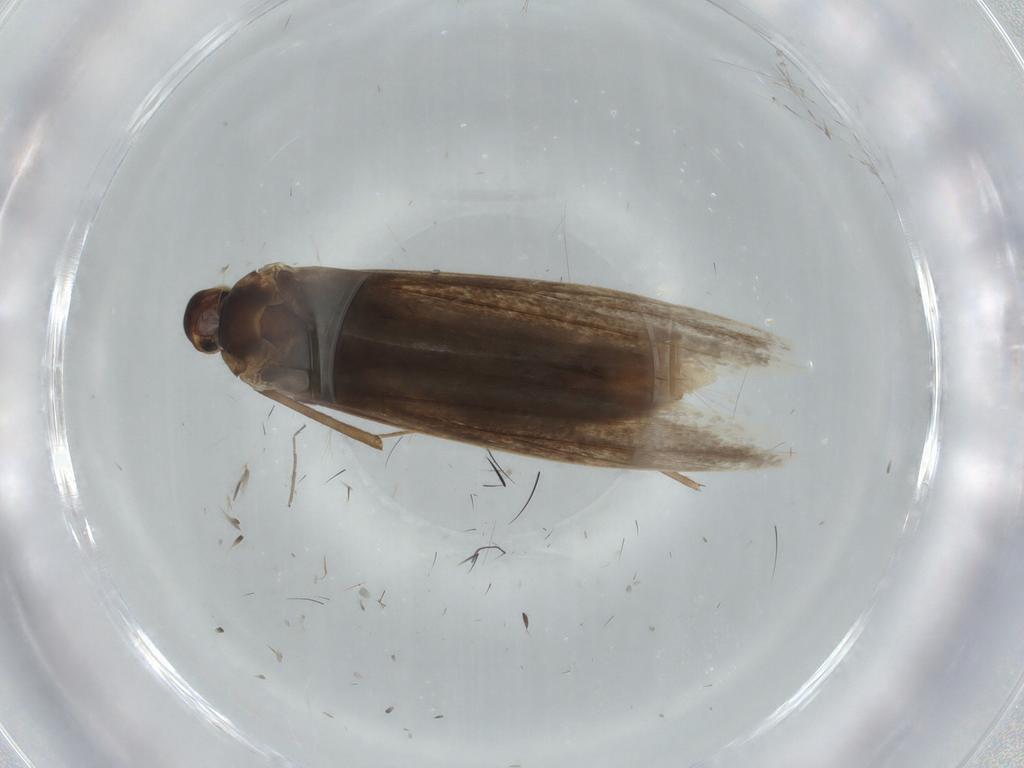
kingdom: Animalia
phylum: Arthropoda
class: Insecta
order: Lepidoptera
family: Coleophoridae
